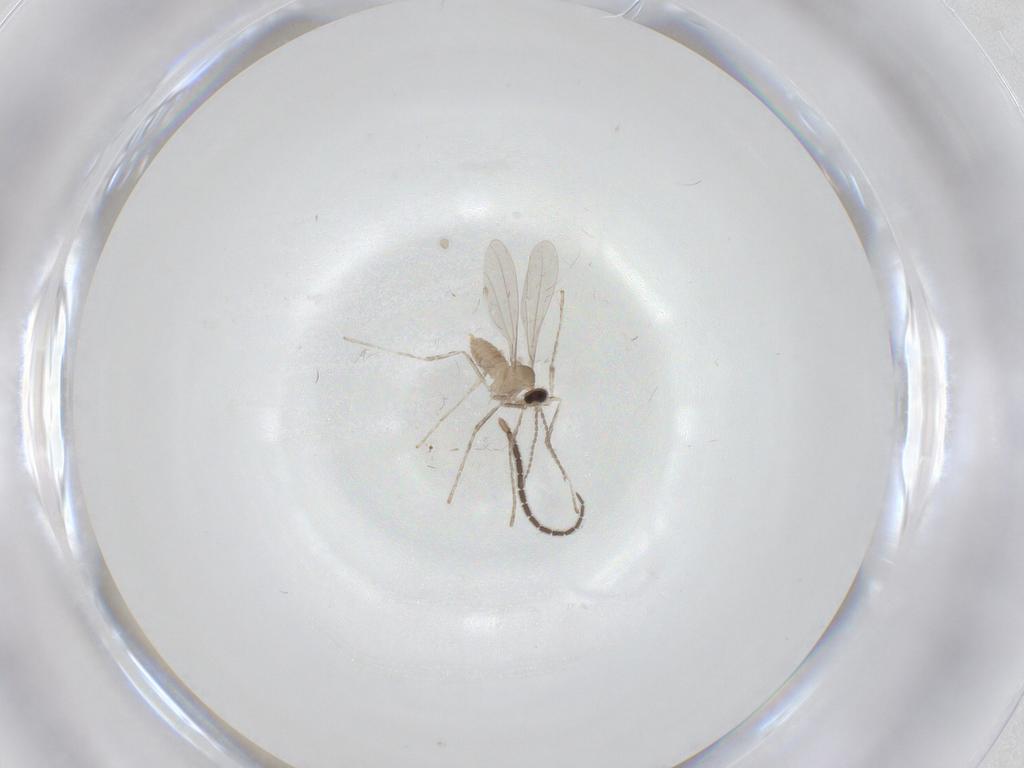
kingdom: Animalia
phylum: Arthropoda
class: Insecta
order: Diptera
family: Cecidomyiidae
